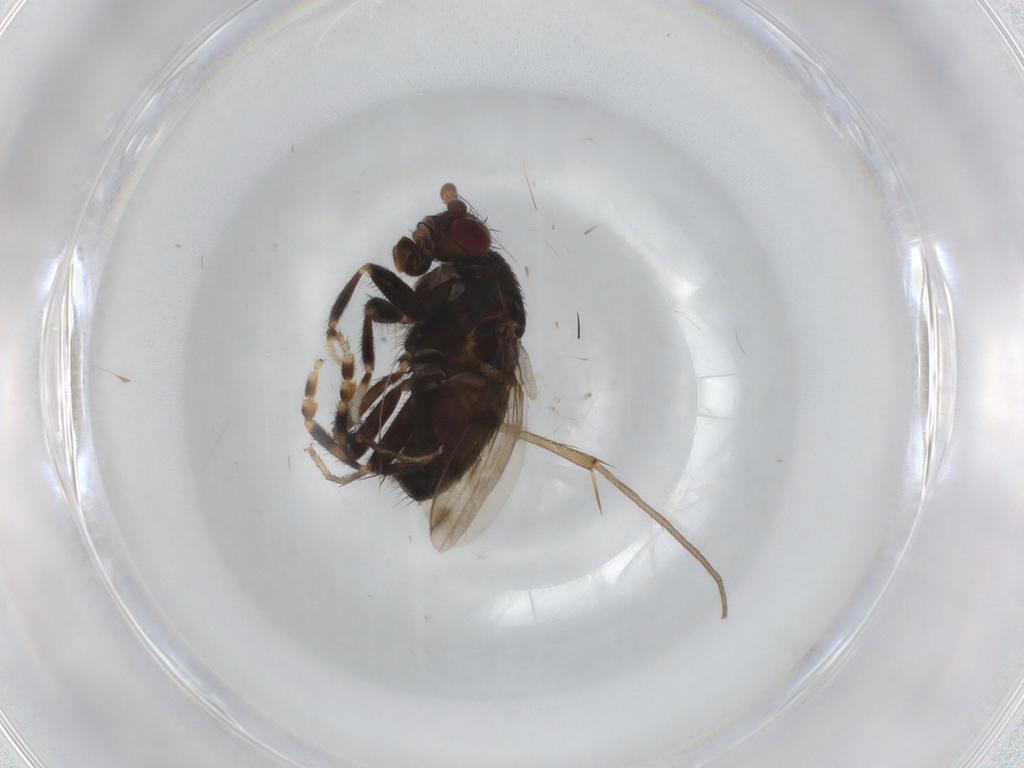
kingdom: Animalia
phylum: Arthropoda
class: Insecta
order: Diptera
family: Sphaeroceridae
